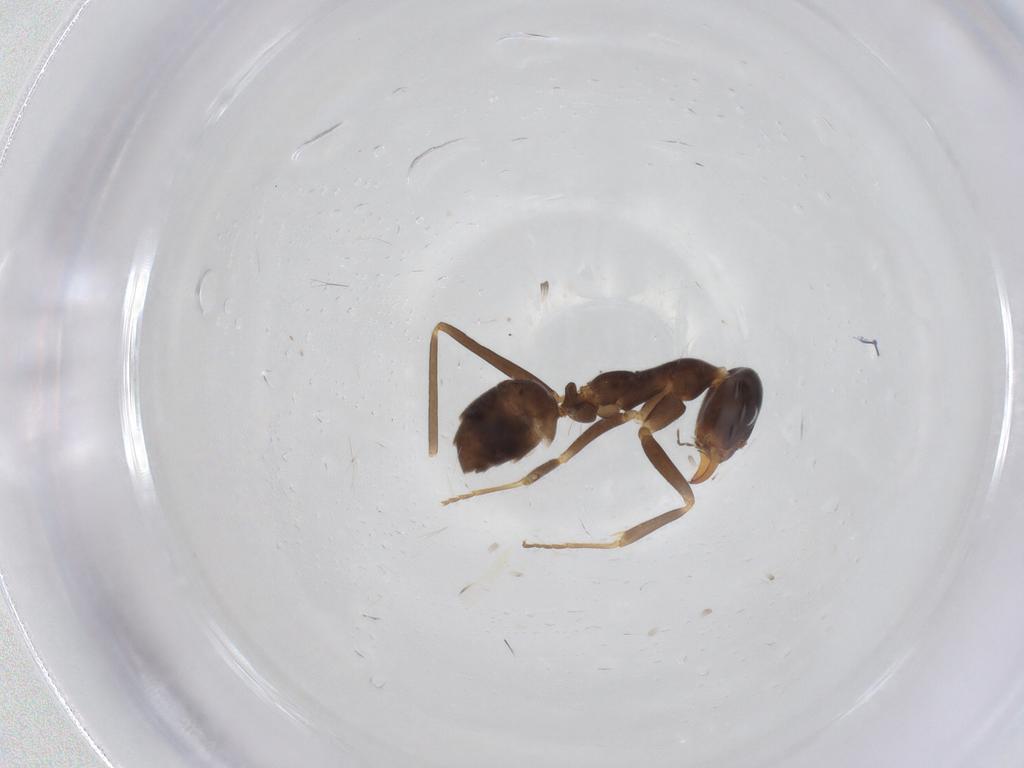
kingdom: Animalia
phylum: Arthropoda
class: Insecta
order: Hymenoptera
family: Formicidae
